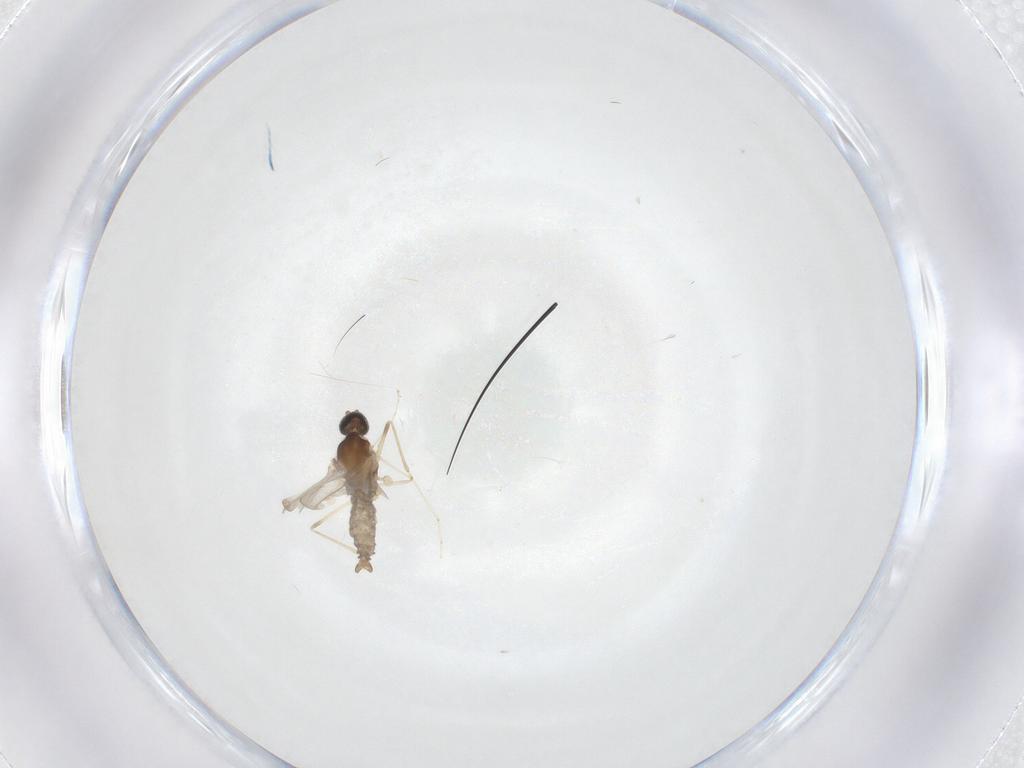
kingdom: Animalia
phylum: Arthropoda
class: Insecta
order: Diptera
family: Cecidomyiidae
